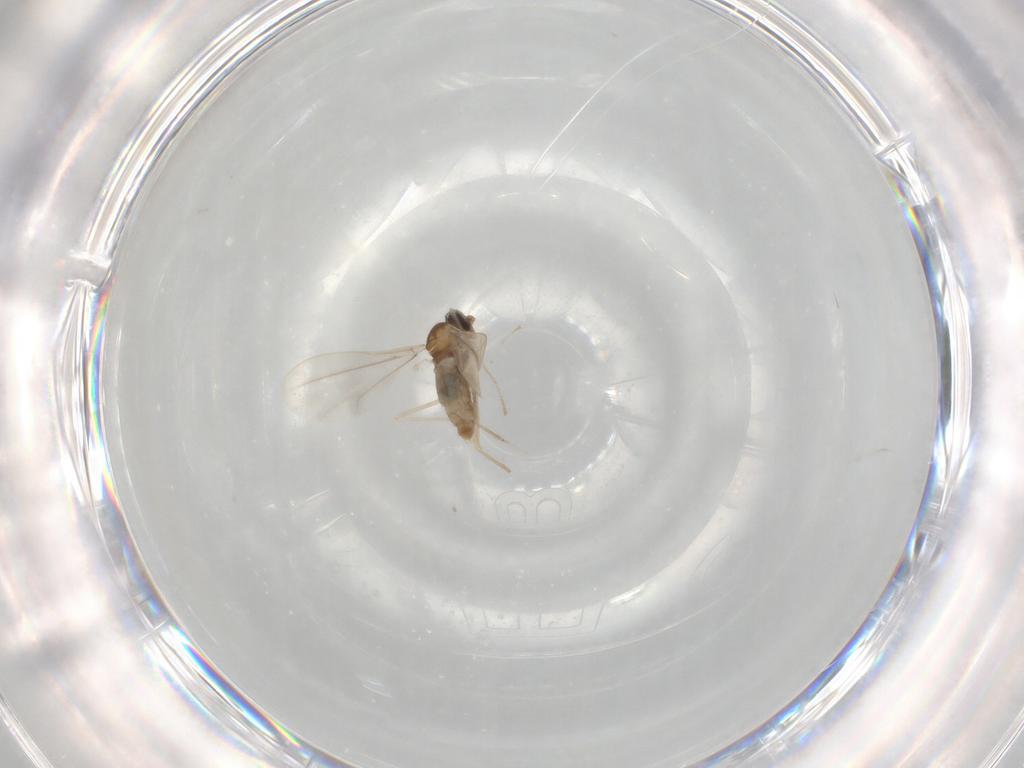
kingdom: Animalia
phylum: Arthropoda
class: Insecta
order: Diptera
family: Cecidomyiidae
